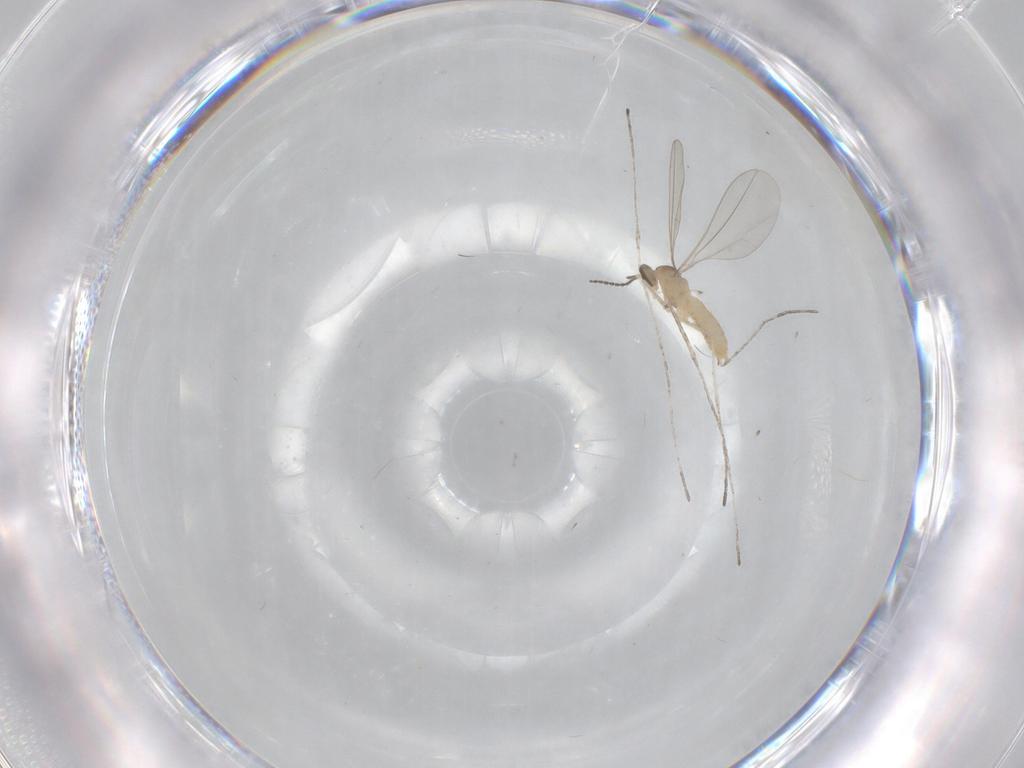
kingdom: Animalia
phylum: Arthropoda
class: Insecta
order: Diptera
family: Cecidomyiidae
